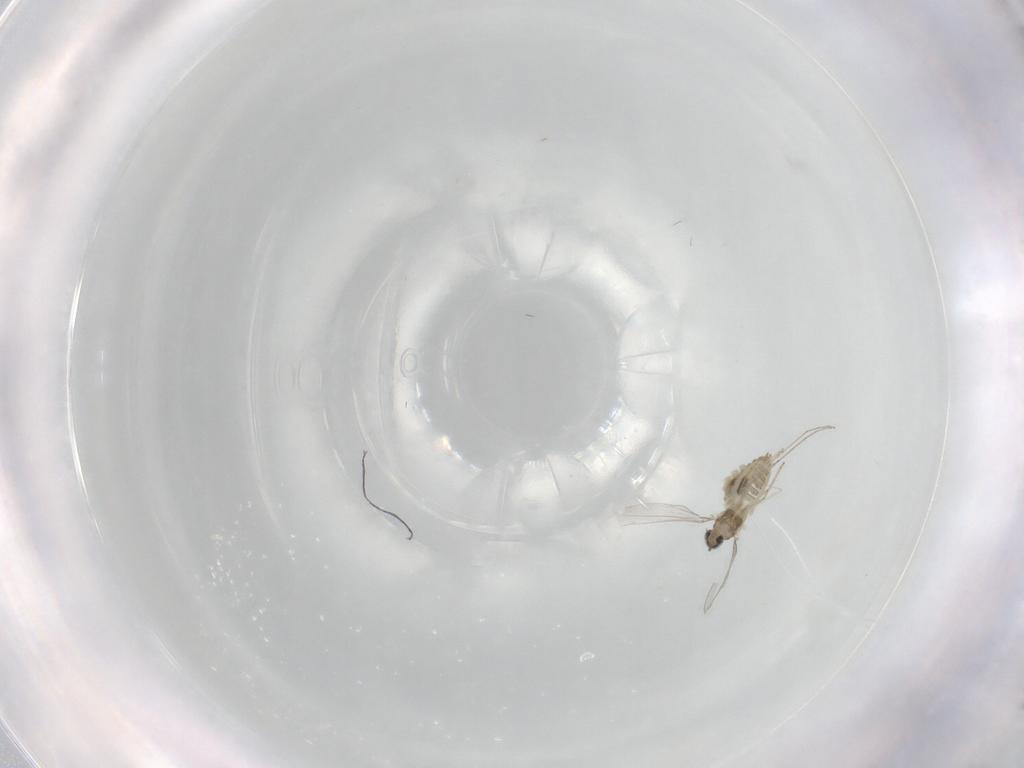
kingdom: Animalia
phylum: Arthropoda
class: Insecta
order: Diptera
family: Cecidomyiidae
